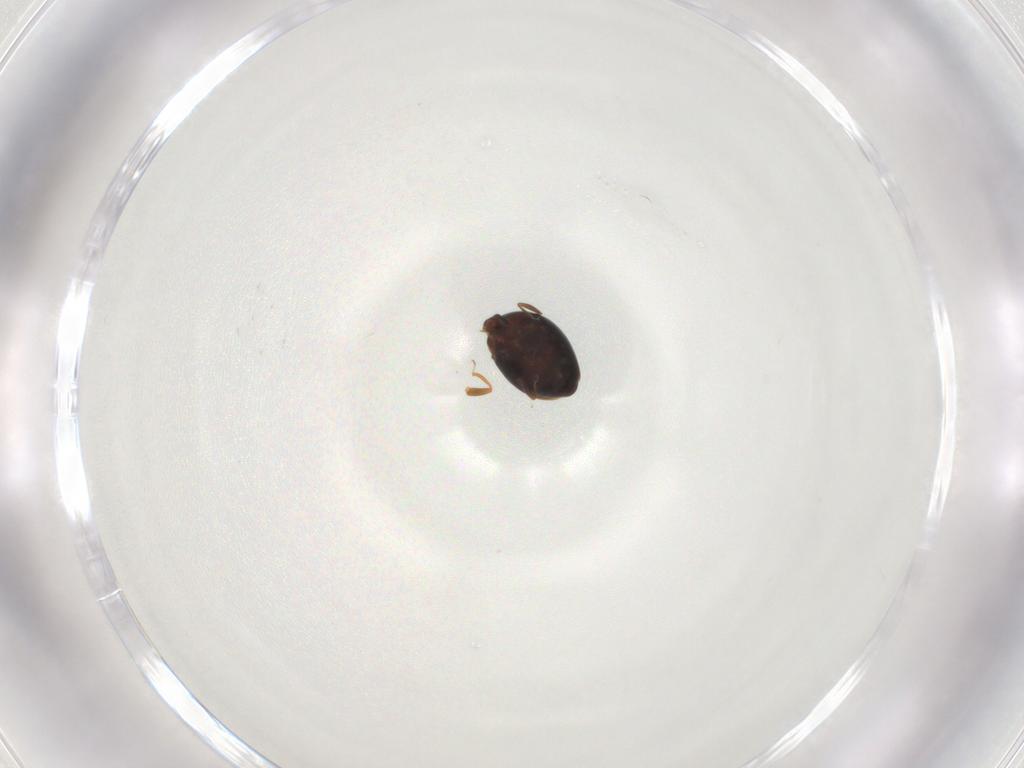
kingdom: Animalia
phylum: Arthropoda
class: Insecta
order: Coleoptera
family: Corylophidae
